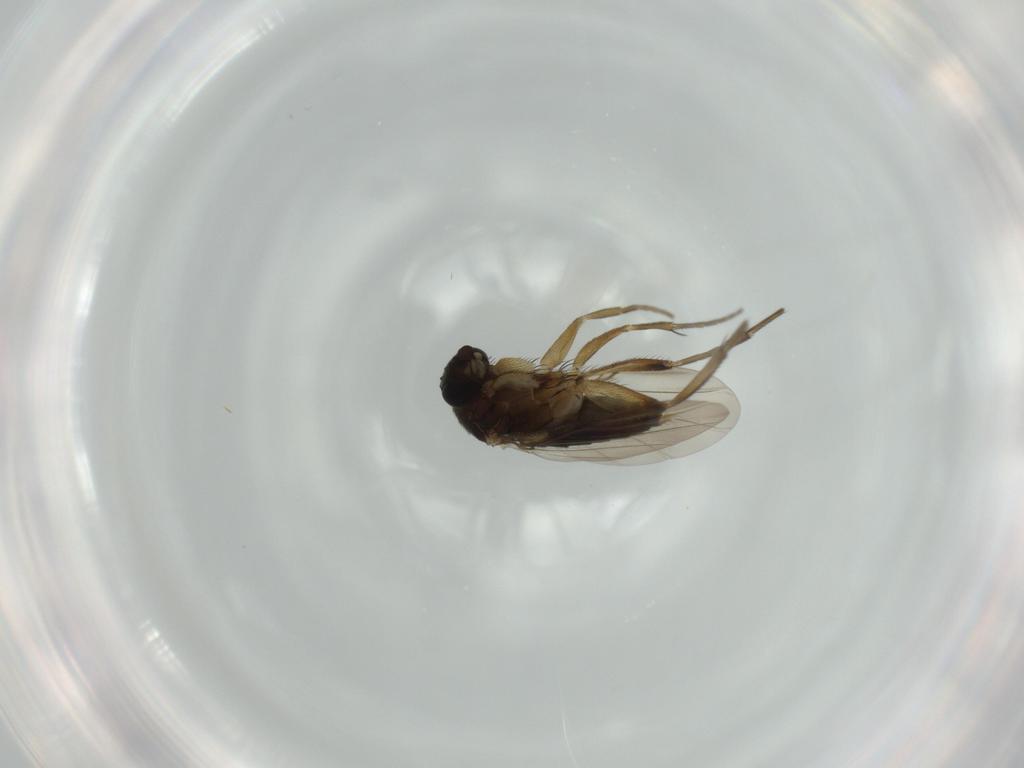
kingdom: Animalia
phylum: Arthropoda
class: Insecta
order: Diptera
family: Phoridae
